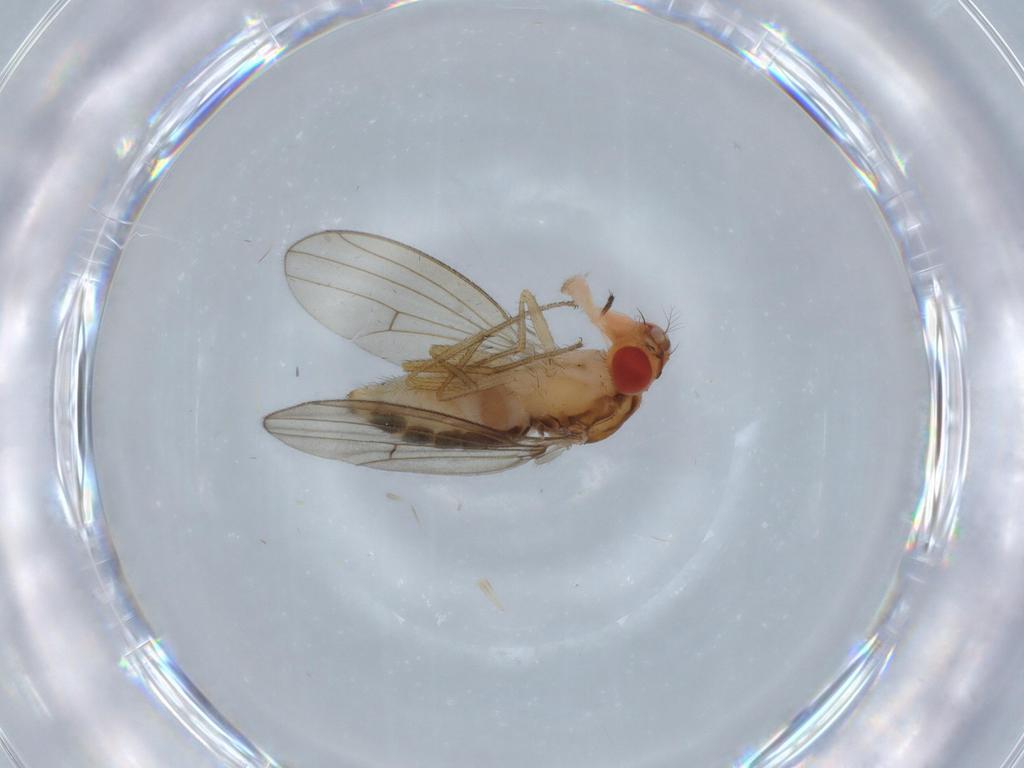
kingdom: Animalia
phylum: Arthropoda
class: Insecta
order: Diptera
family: Drosophilidae
